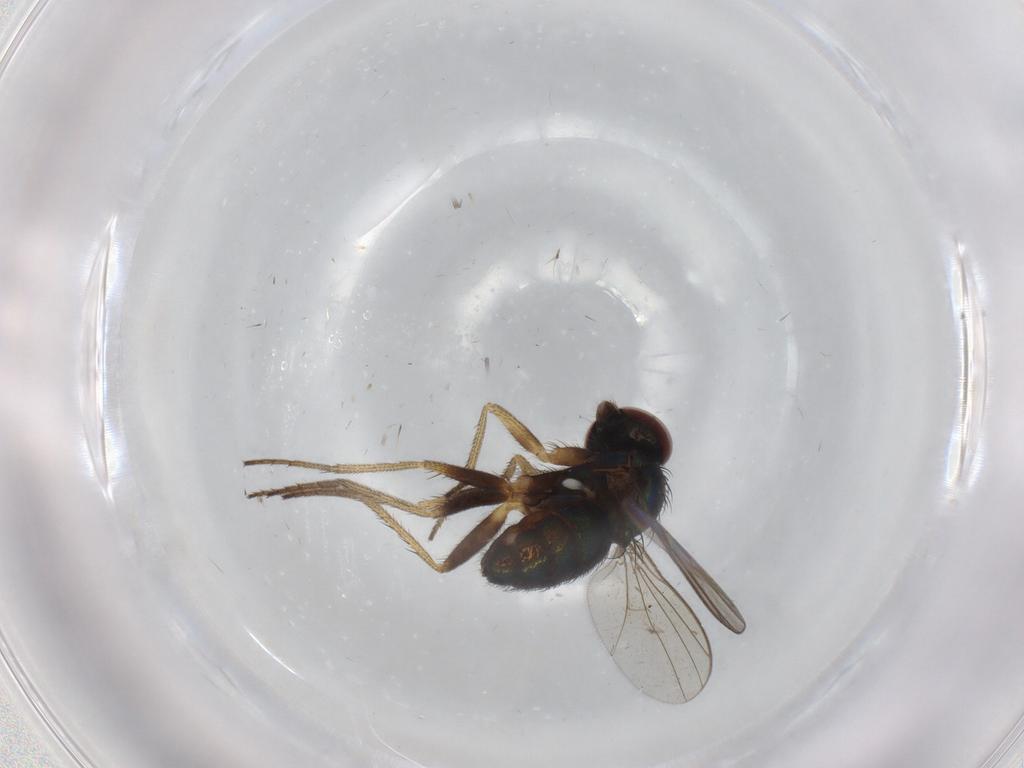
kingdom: Animalia
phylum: Arthropoda
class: Insecta
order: Diptera
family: Dolichopodidae
